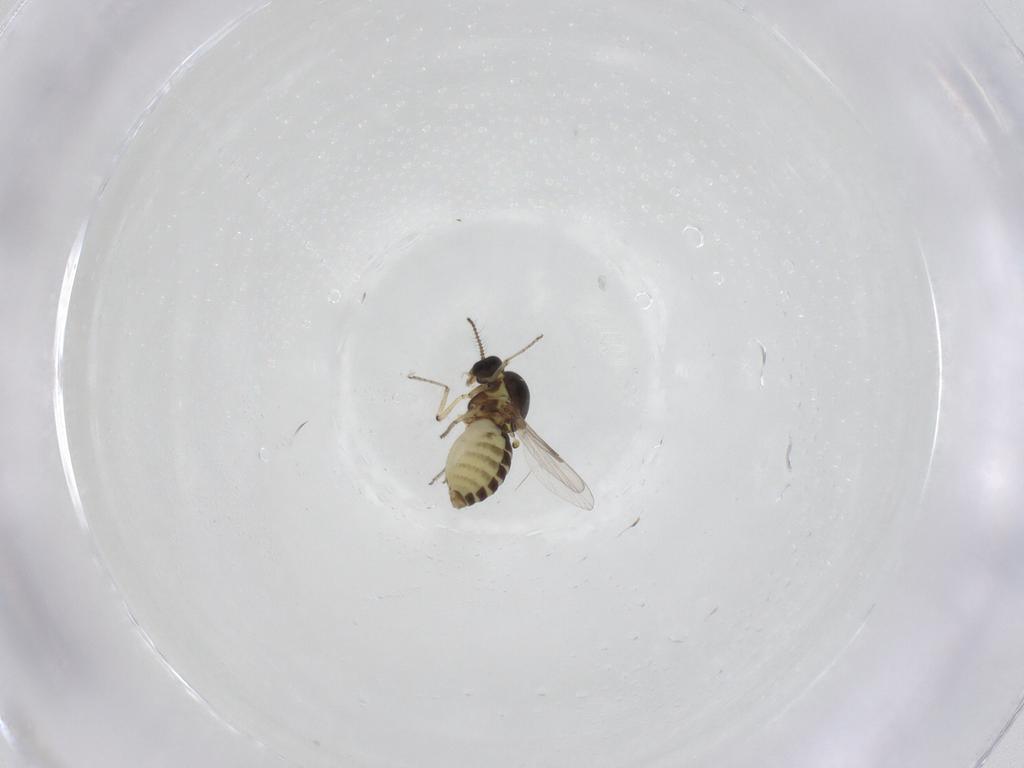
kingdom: Animalia
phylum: Arthropoda
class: Insecta
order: Diptera
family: Ceratopogonidae
